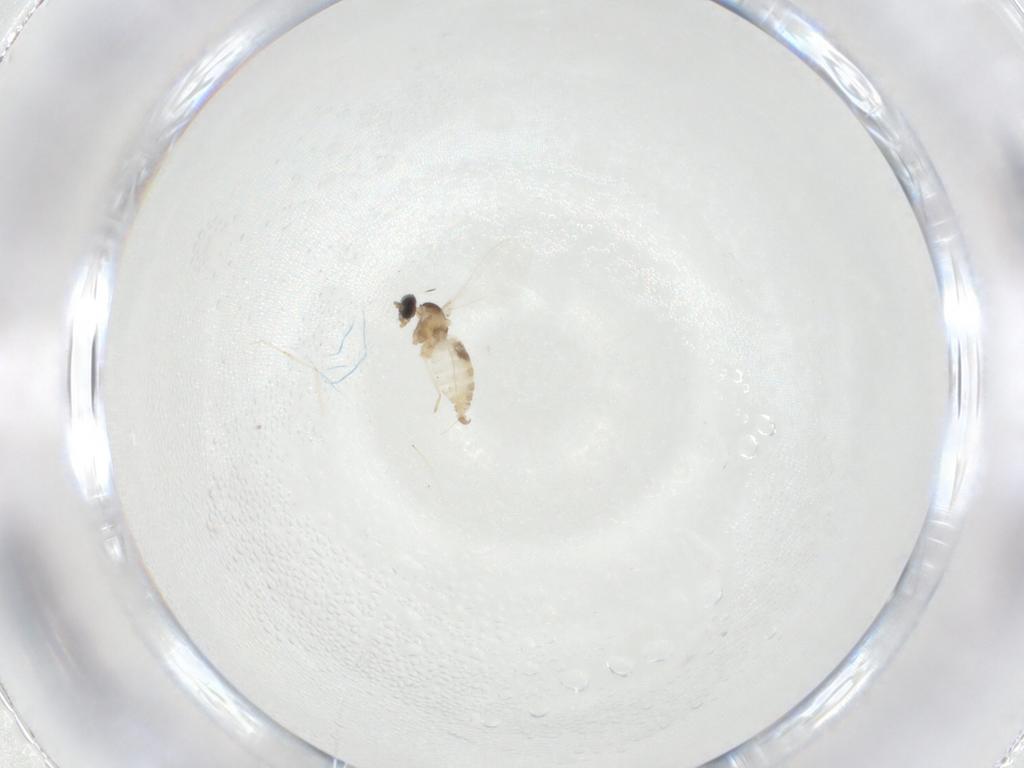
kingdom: Animalia
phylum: Arthropoda
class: Insecta
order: Diptera
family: Cecidomyiidae
